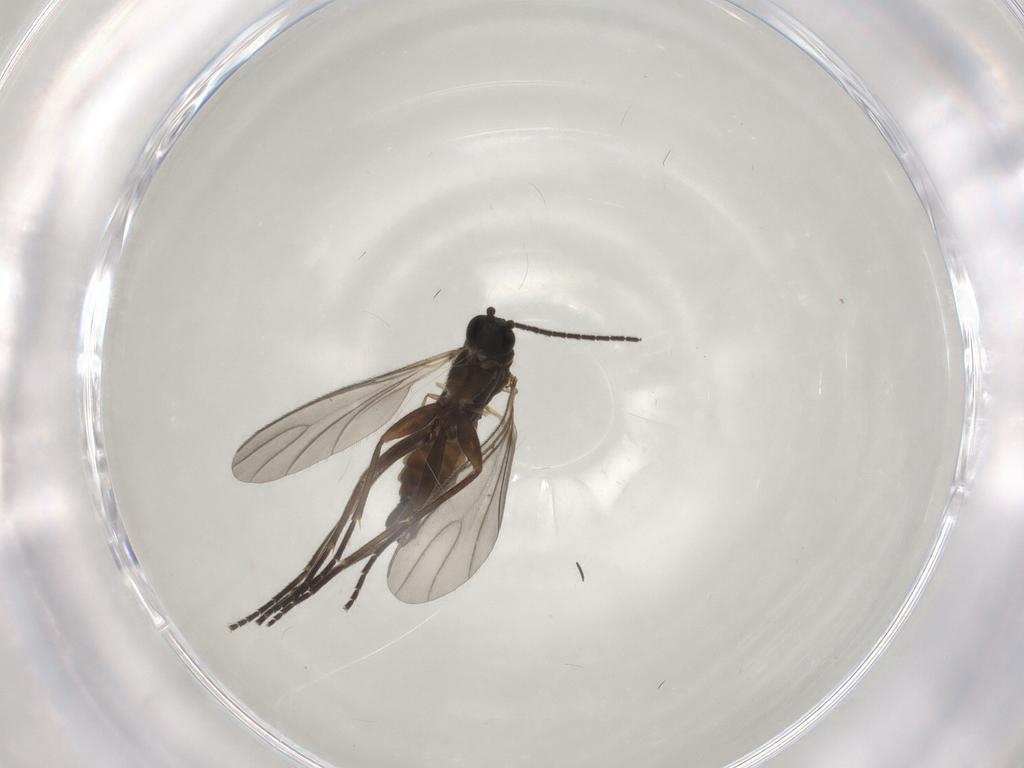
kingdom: Animalia
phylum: Arthropoda
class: Insecta
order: Diptera
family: Sciaridae
